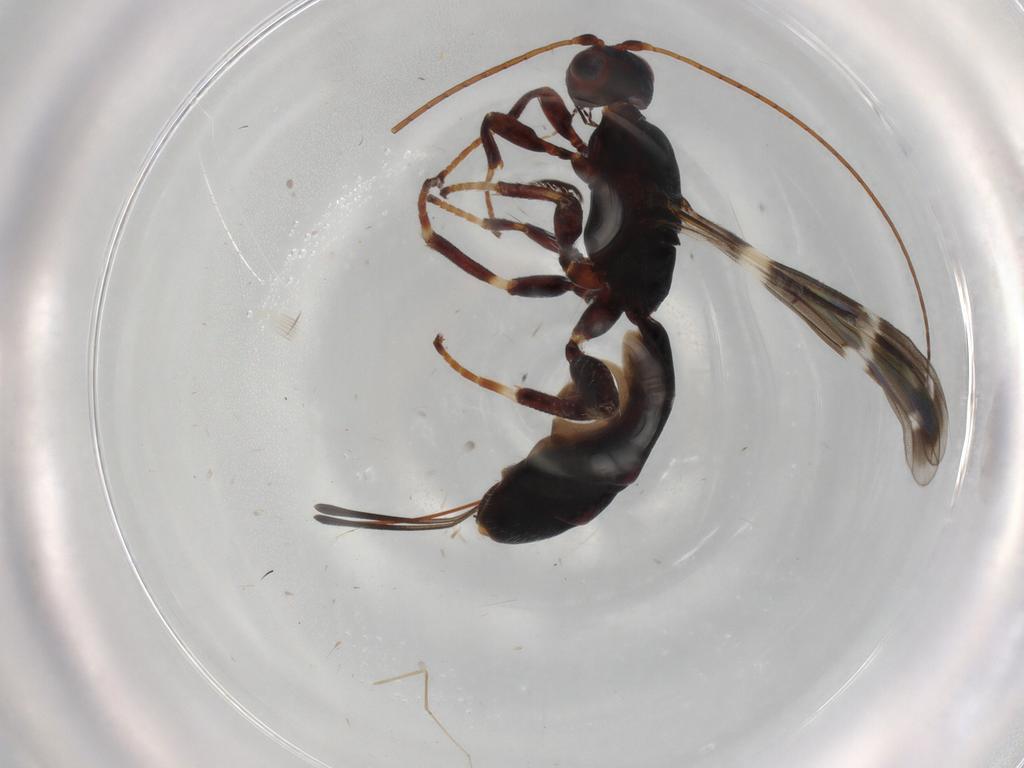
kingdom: Animalia
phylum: Arthropoda
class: Insecta
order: Hymenoptera
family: Braconidae
